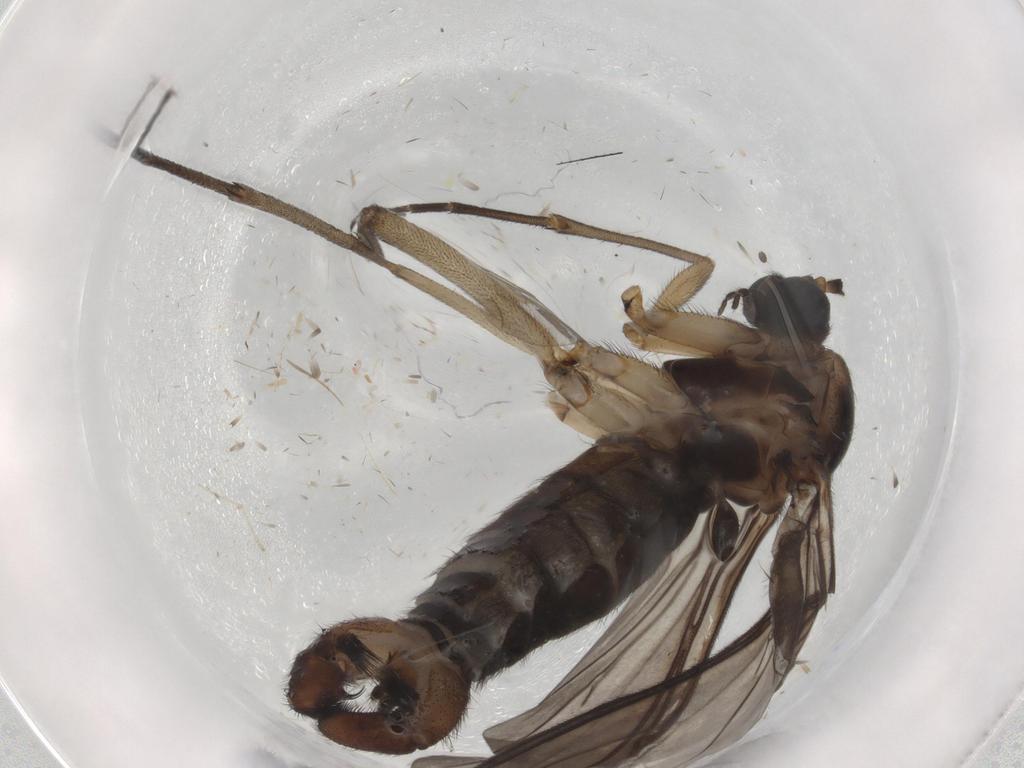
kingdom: Animalia
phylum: Arthropoda
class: Insecta
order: Diptera
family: Sciaridae
